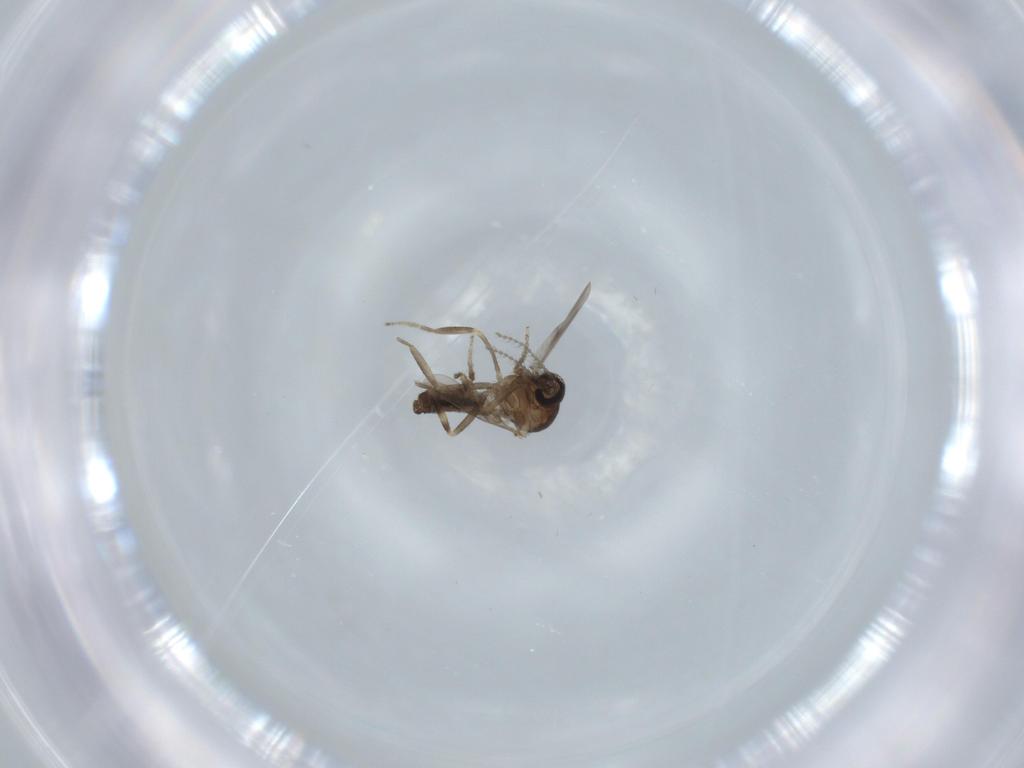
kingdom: Animalia
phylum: Arthropoda
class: Insecta
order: Diptera
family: Ceratopogonidae
